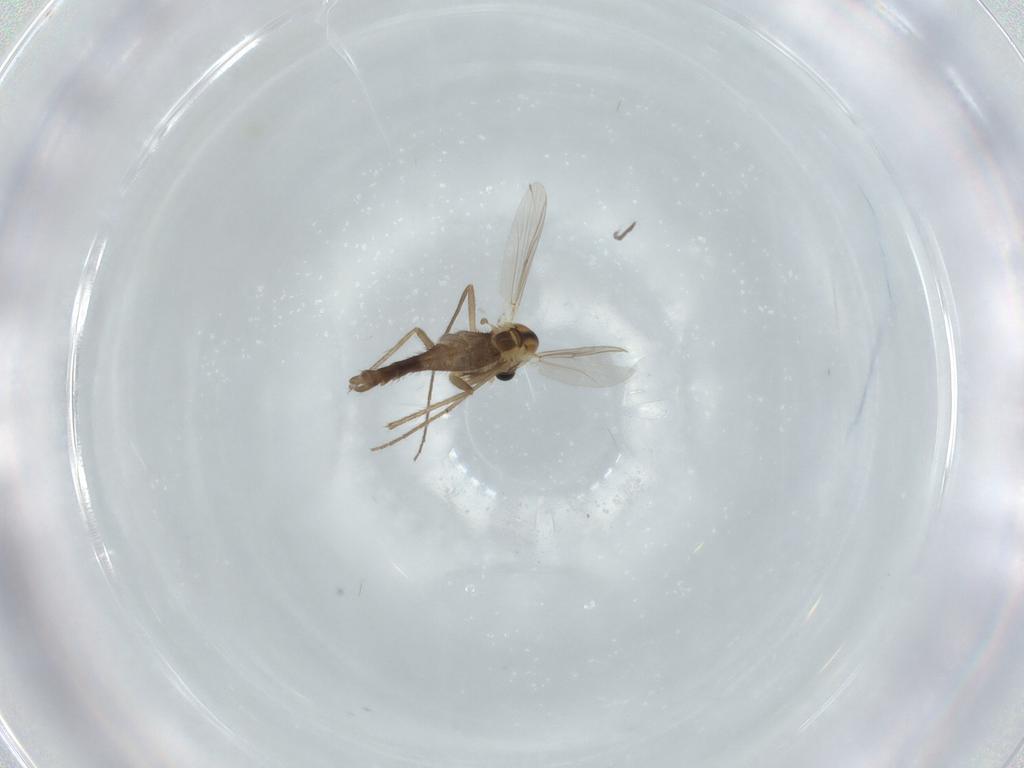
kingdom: Animalia
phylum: Arthropoda
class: Insecta
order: Diptera
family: Chironomidae
